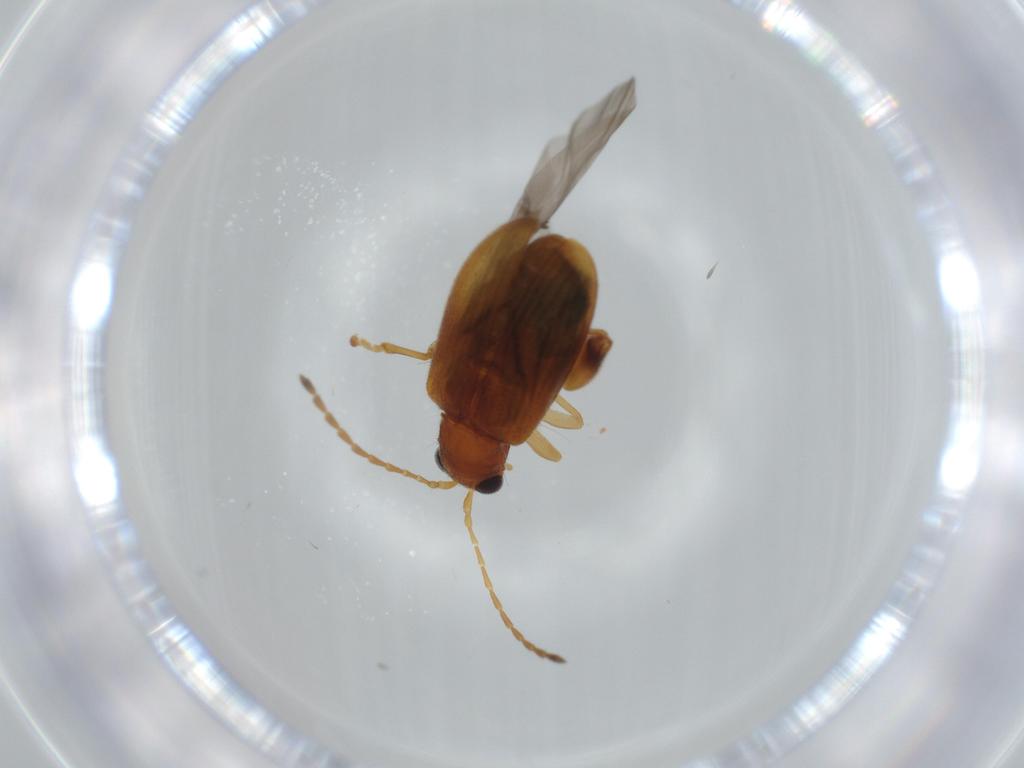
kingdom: Animalia
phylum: Arthropoda
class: Insecta
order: Coleoptera
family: Chrysomelidae
